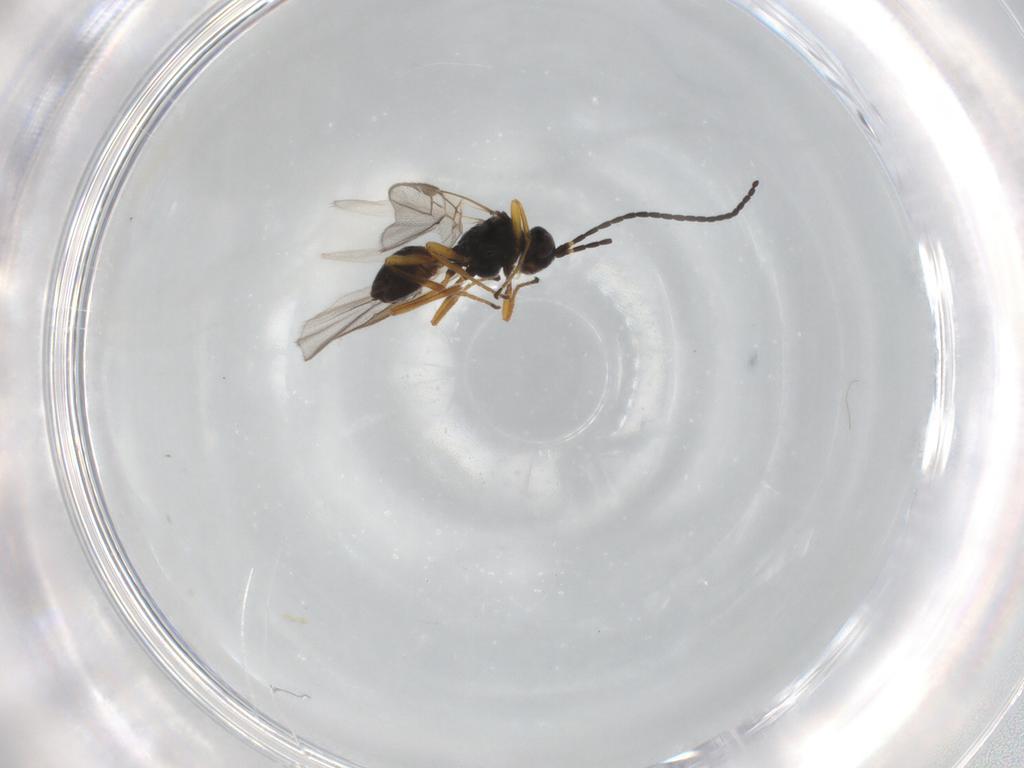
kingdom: Animalia
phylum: Arthropoda
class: Insecta
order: Hymenoptera
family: Braconidae
